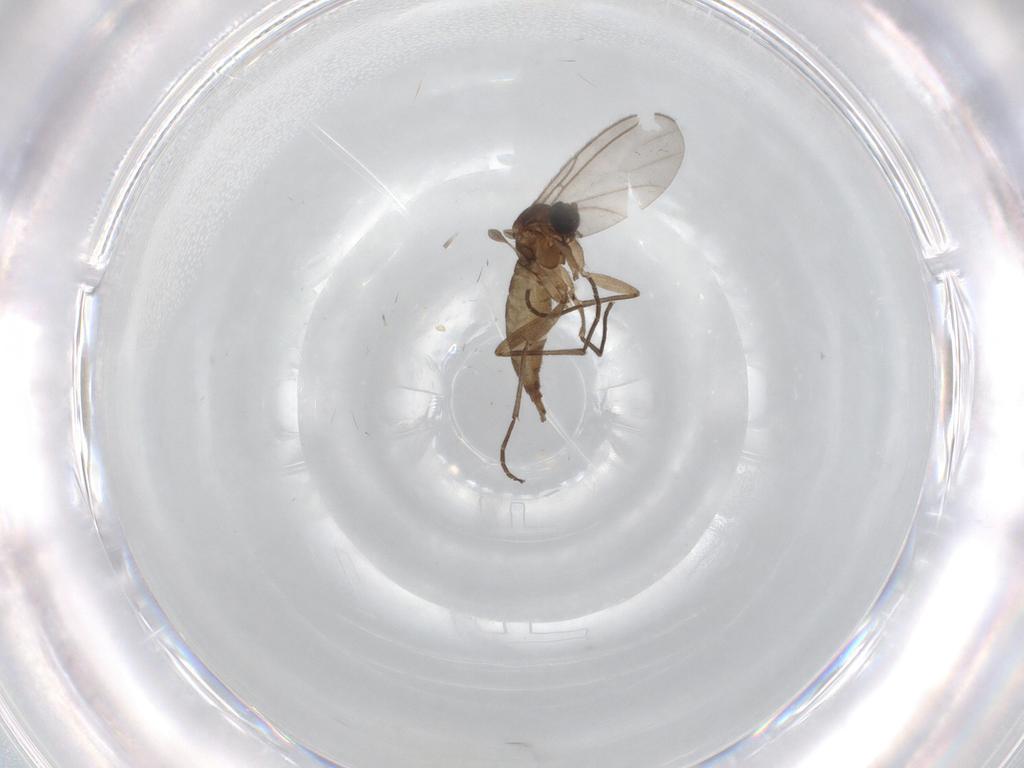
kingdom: Animalia
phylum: Arthropoda
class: Insecta
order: Diptera
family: Sciaridae
